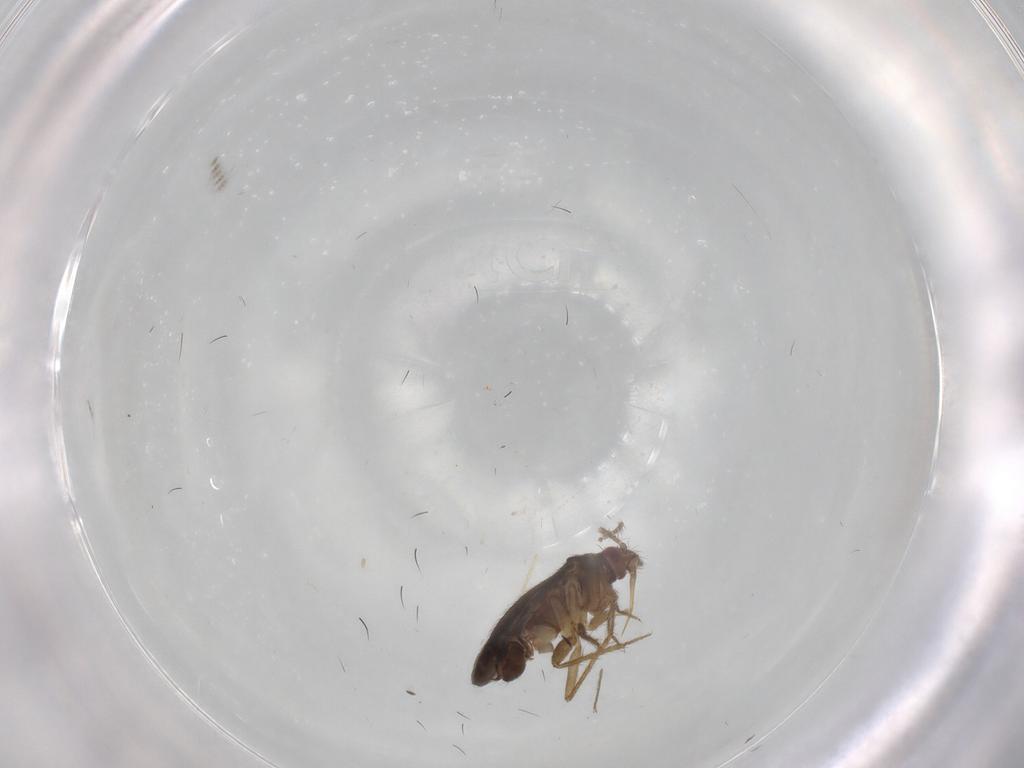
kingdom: Animalia
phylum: Arthropoda
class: Insecta
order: Hemiptera
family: Ceratocombidae
